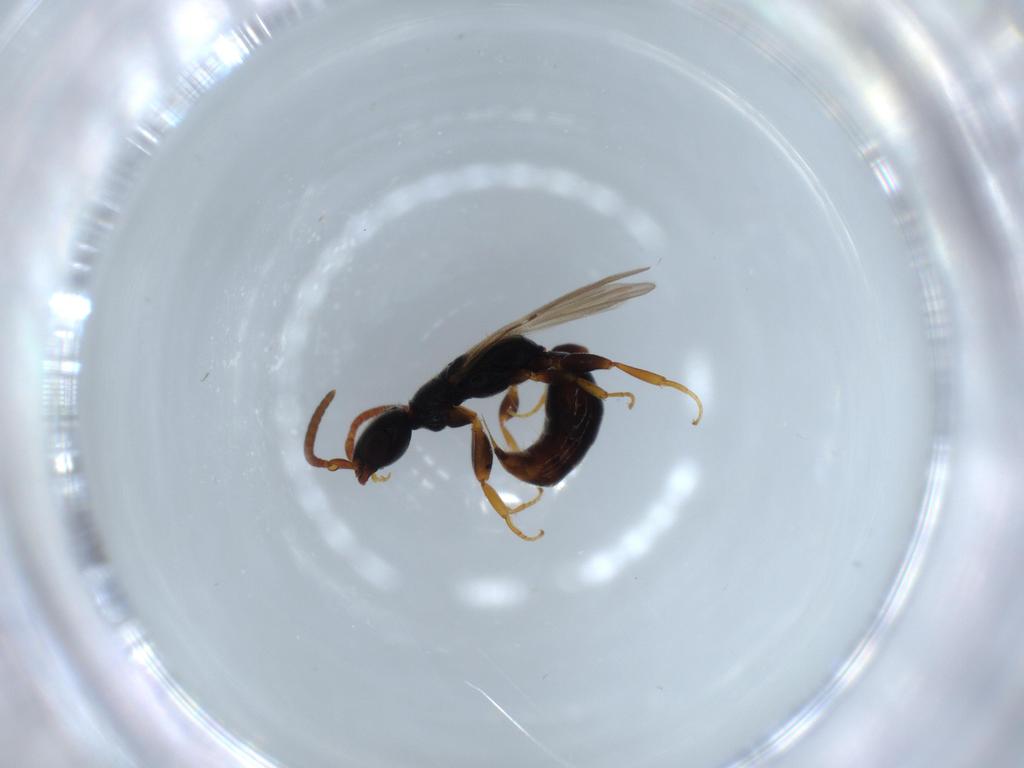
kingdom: Animalia
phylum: Arthropoda
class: Insecta
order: Hymenoptera
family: Bethylidae
